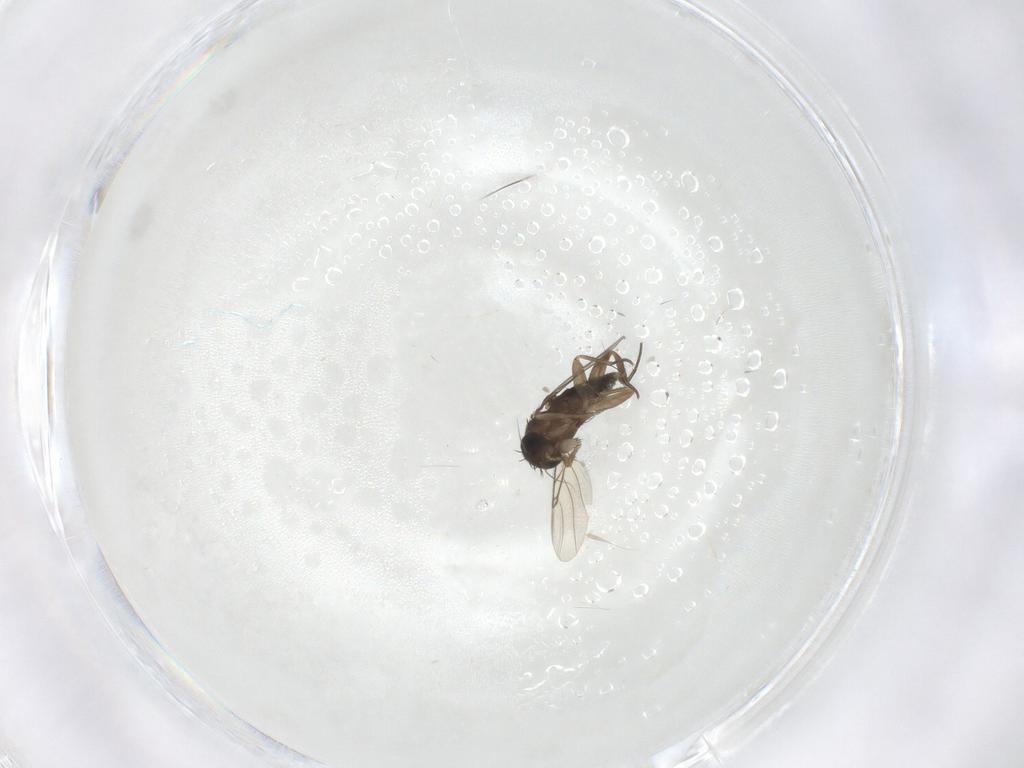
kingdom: Animalia
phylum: Arthropoda
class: Insecta
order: Diptera
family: Phoridae
